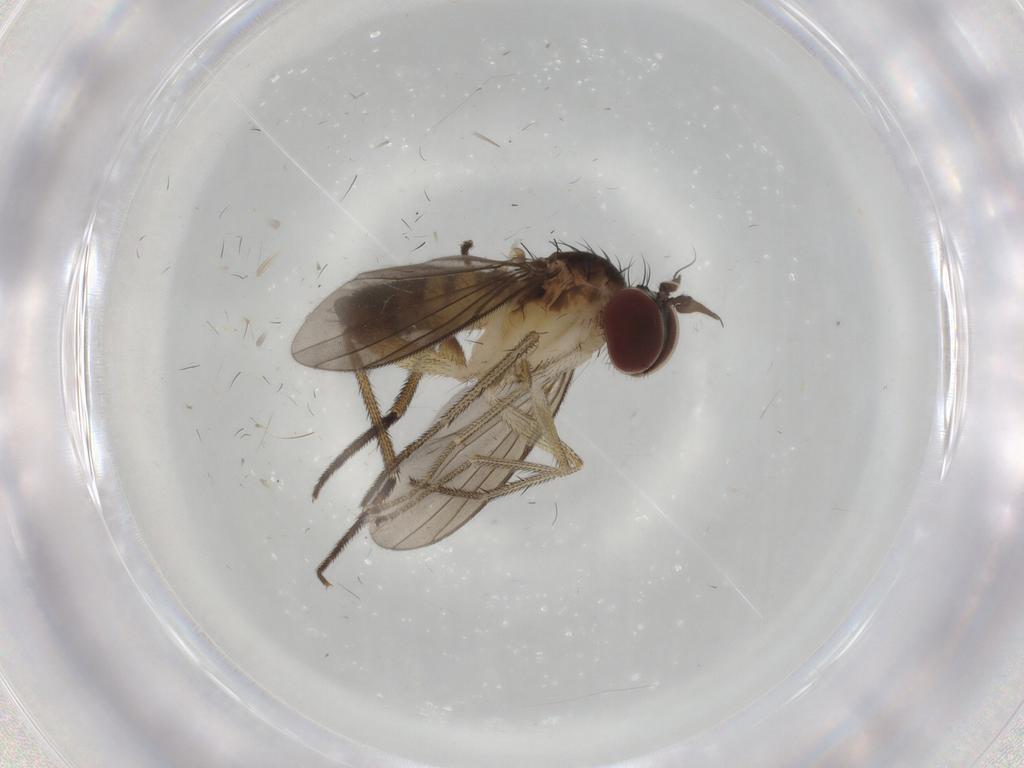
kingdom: Animalia
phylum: Arthropoda
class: Insecta
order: Diptera
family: Dolichopodidae
